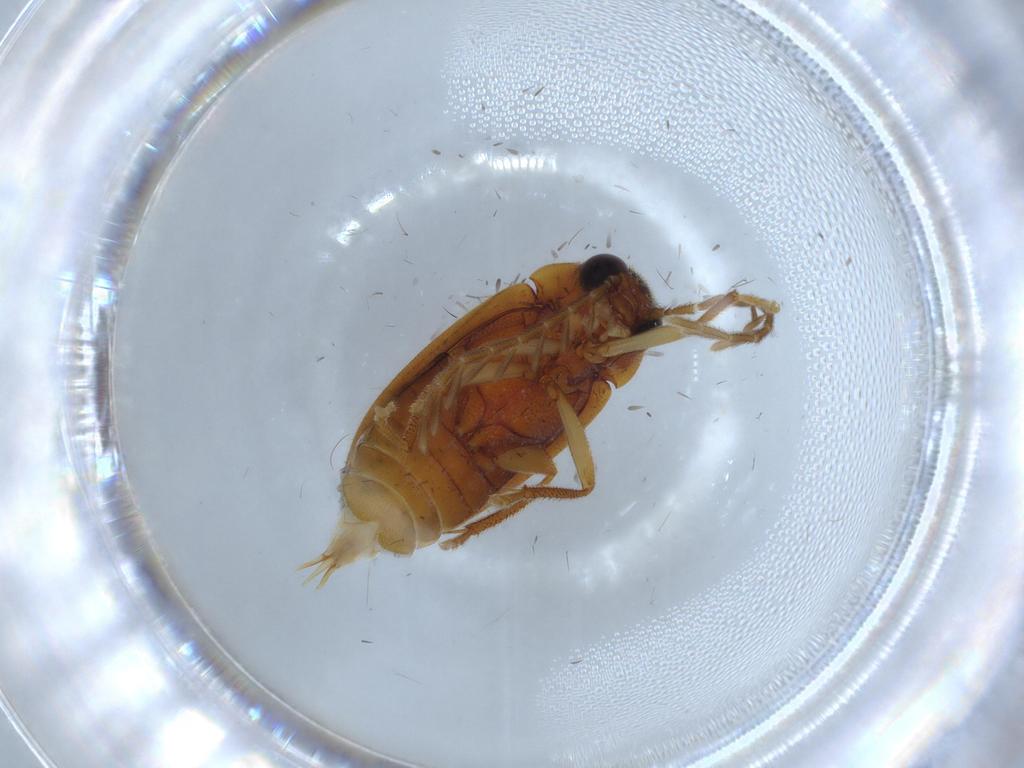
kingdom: Animalia
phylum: Arthropoda
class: Insecta
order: Coleoptera
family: Ptilodactylidae
